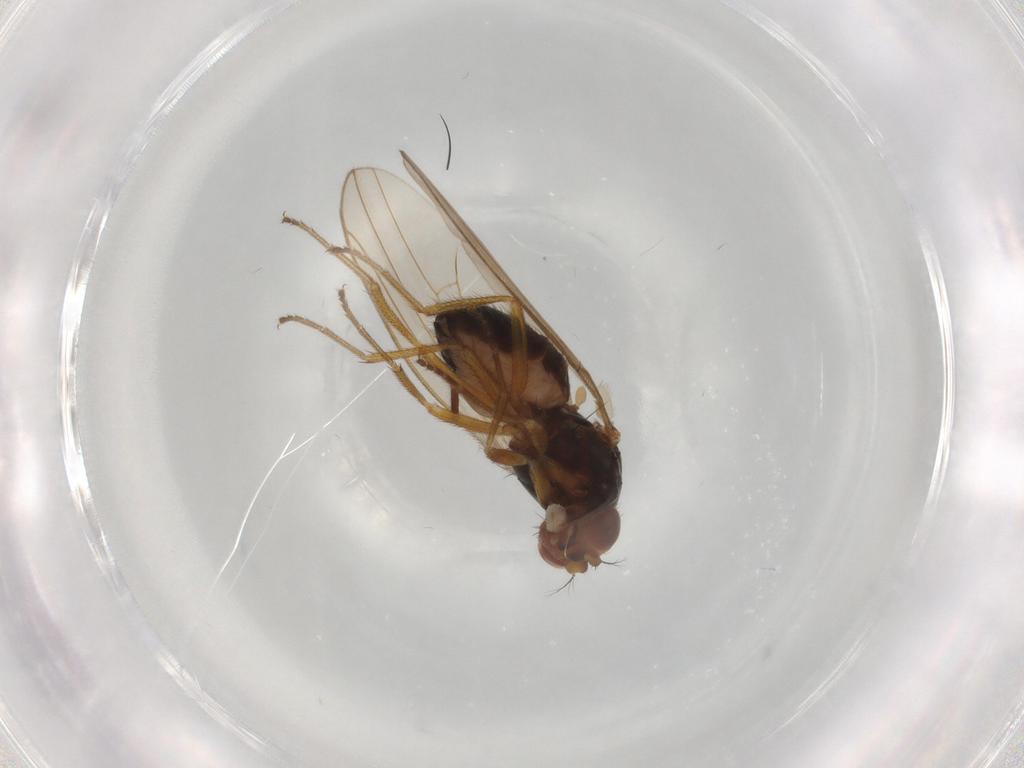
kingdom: Animalia
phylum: Arthropoda
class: Insecta
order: Diptera
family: Drosophilidae
